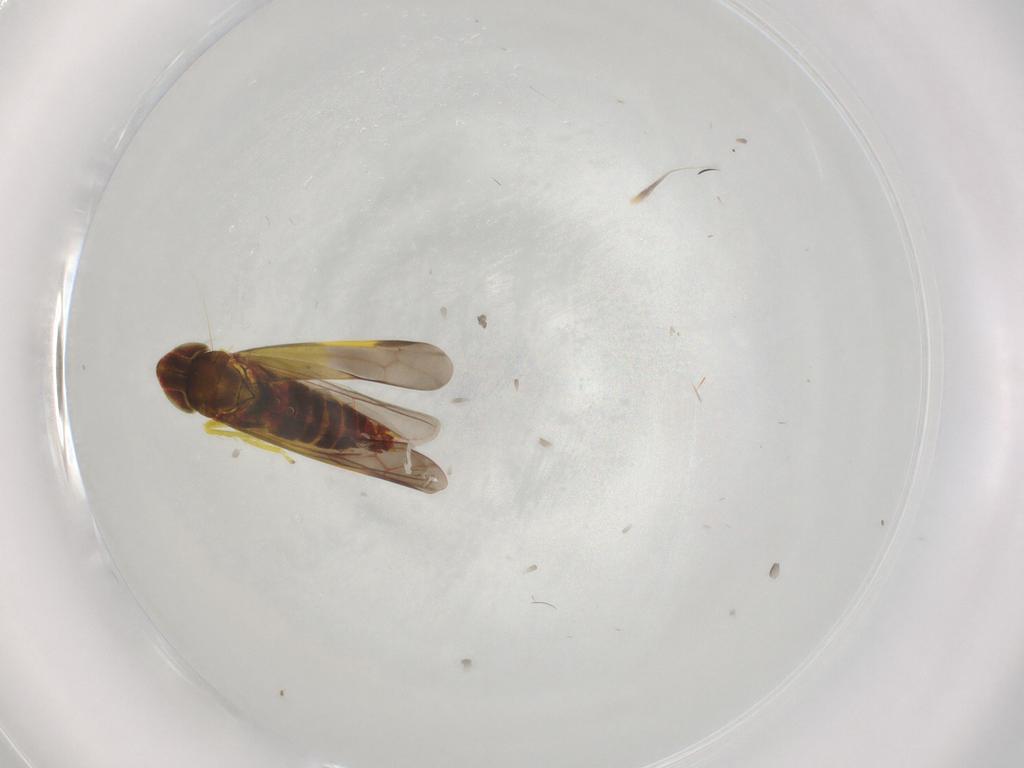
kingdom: Animalia
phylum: Arthropoda
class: Insecta
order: Hemiptera
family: Cicadellidae
